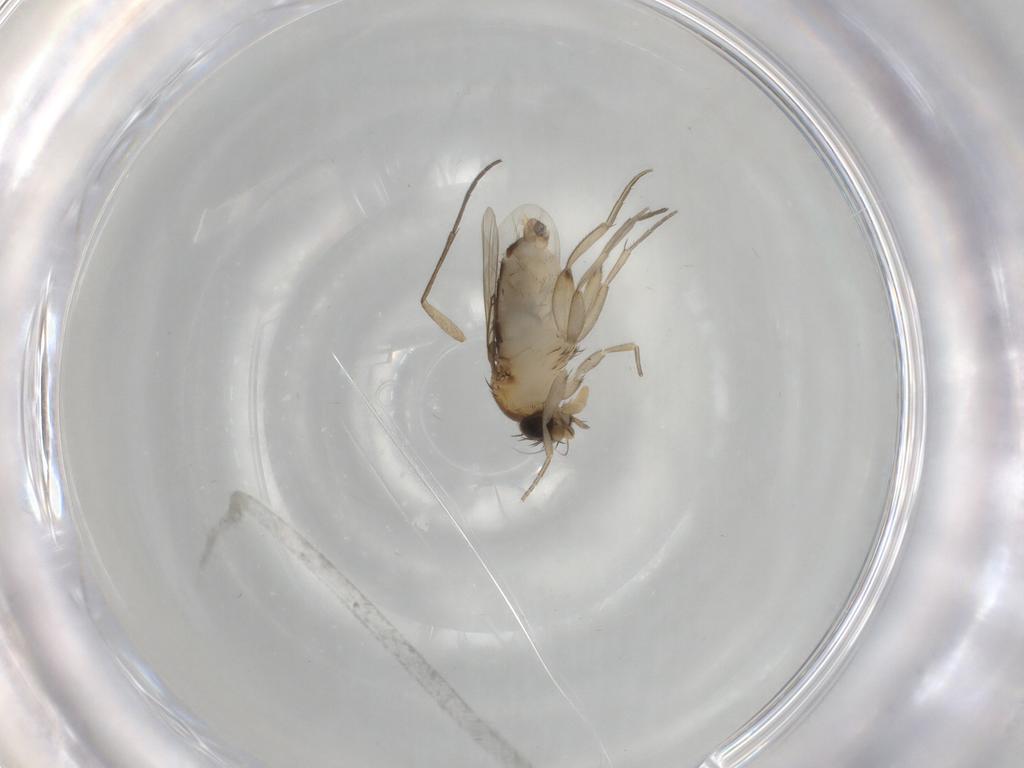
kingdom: Animalia
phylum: Arthropoda
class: Insecta
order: Diptera
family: Phoridae
